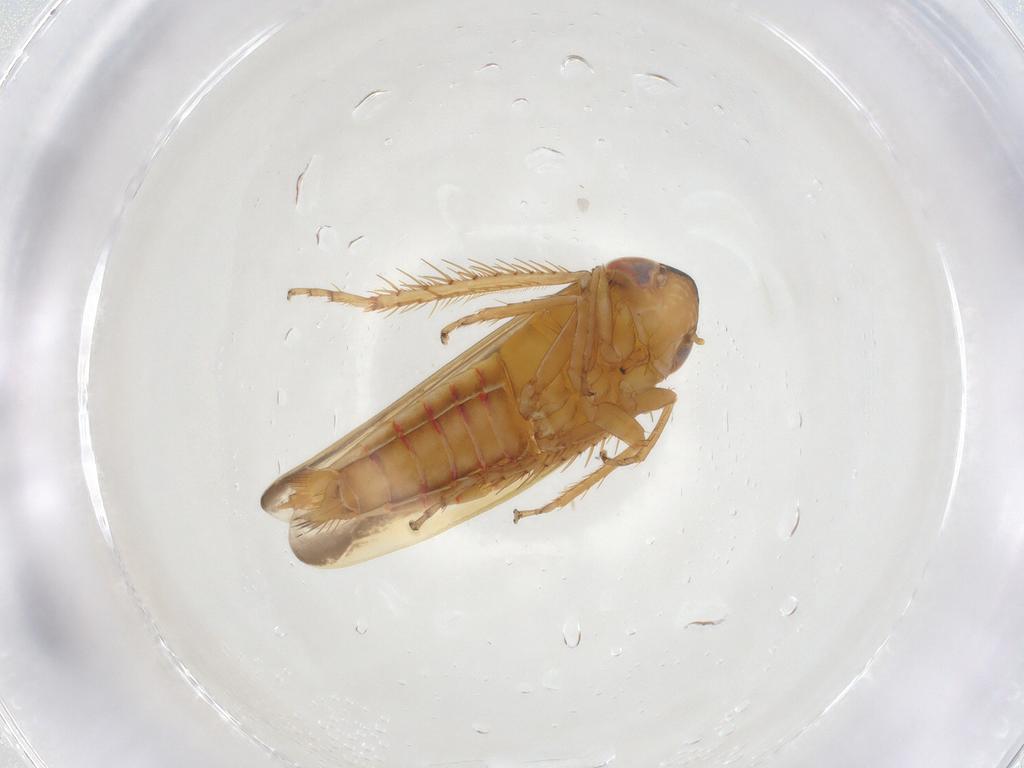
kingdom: Animalia
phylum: Arthropoda
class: Insecta
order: Hemiptera
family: Cicadellidae
